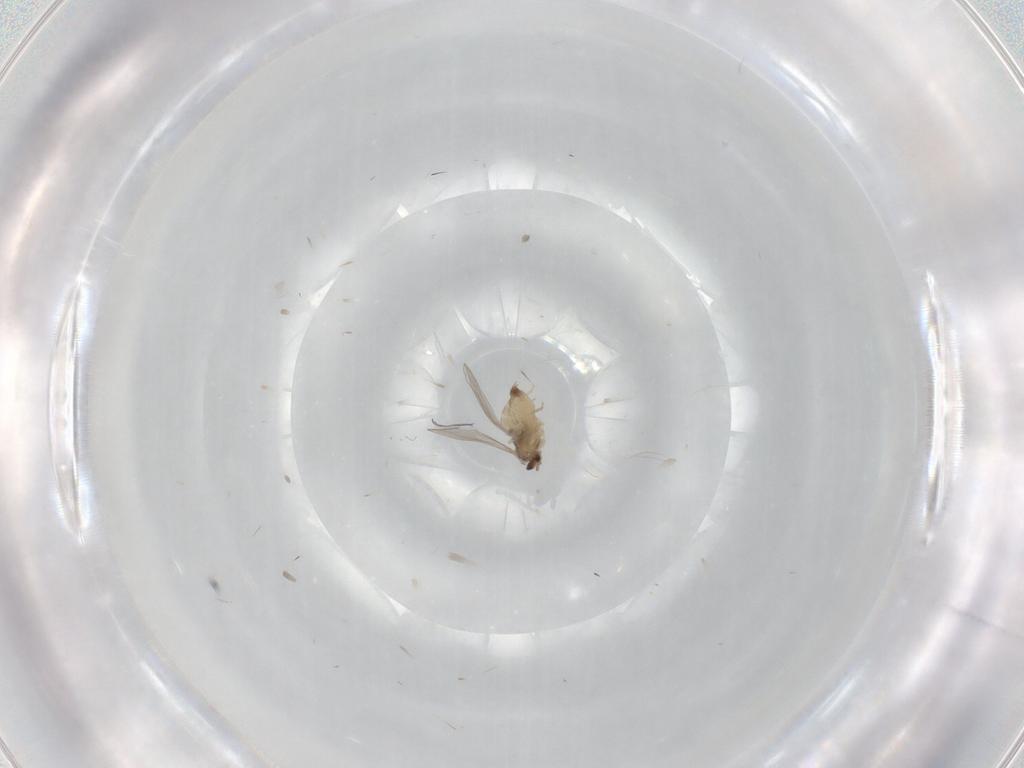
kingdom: Animalia
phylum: Arthropoda
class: Insecta
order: Diptera
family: Cecidomyiidae
